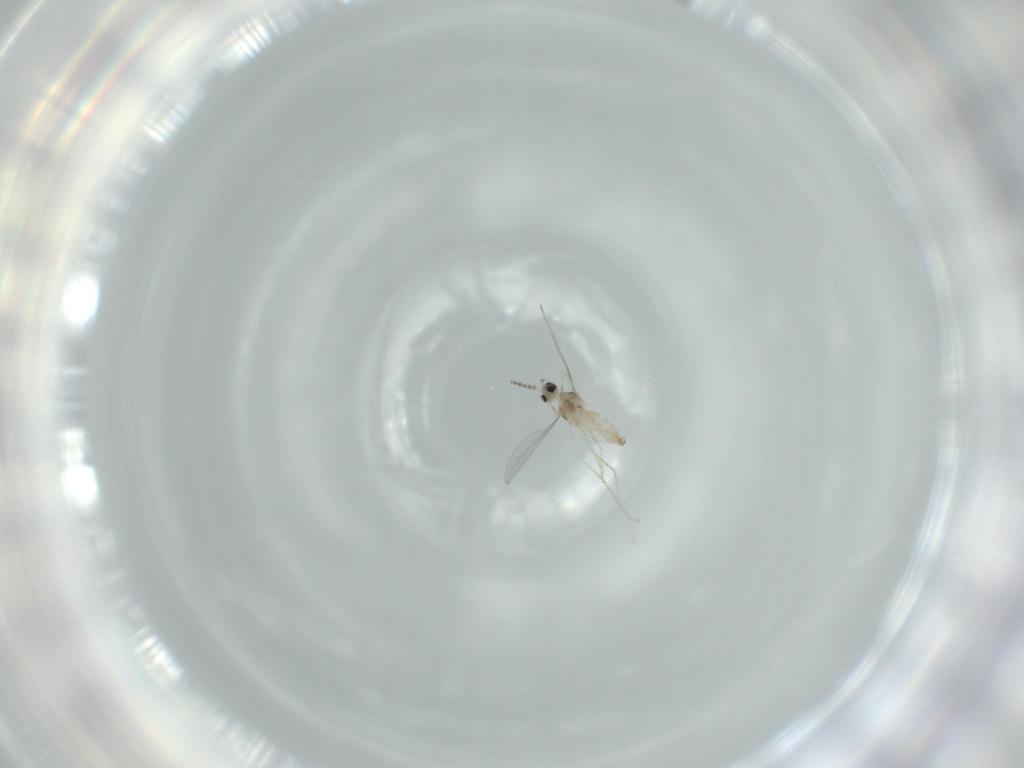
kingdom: Animalia
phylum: Arthropoda
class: Insecta
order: Diptera
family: Cecidomyiidae
